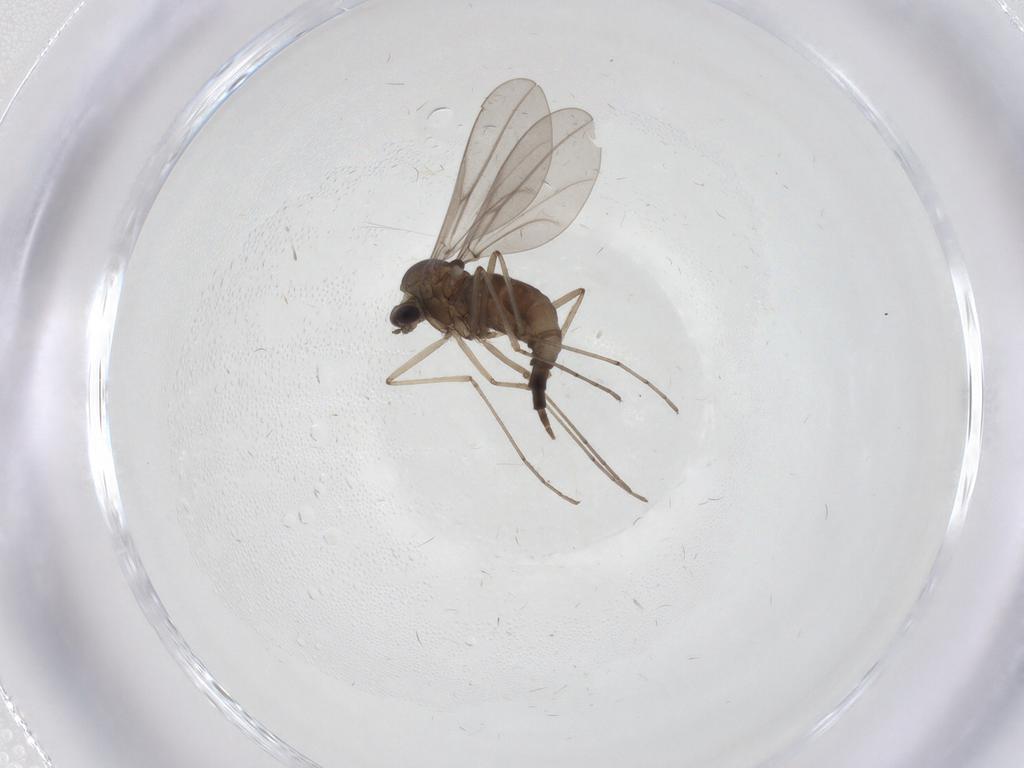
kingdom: Animalia
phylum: Arthropoda
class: Insecta
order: Diptera
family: Cecidomyiidae
